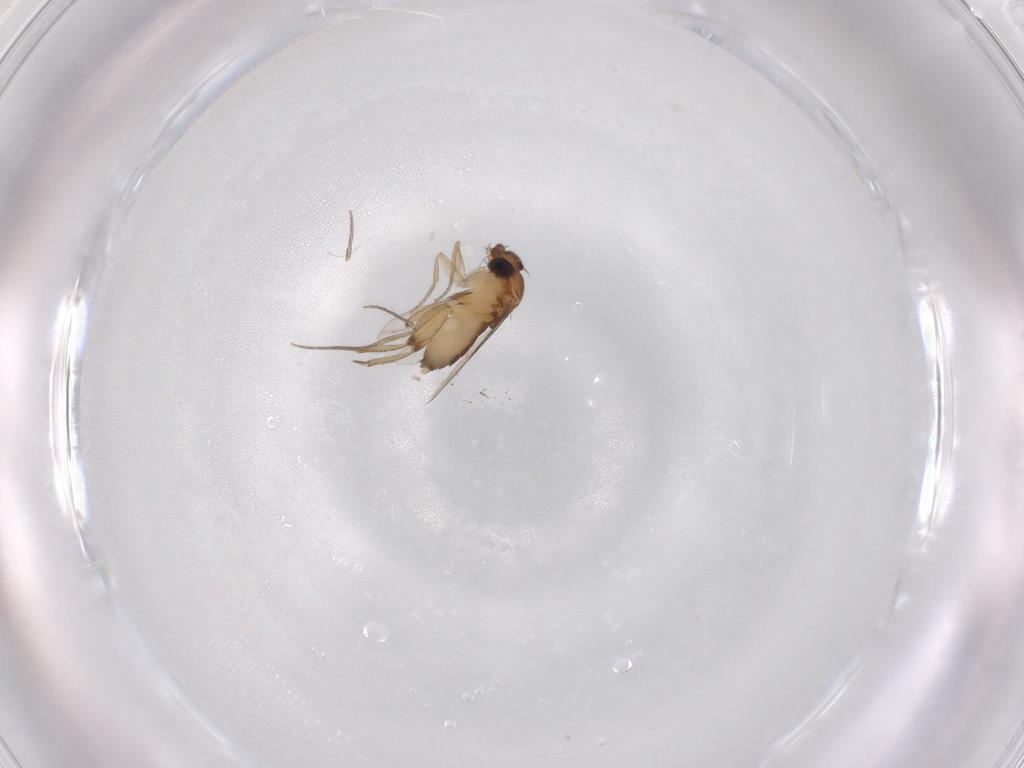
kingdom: Animalia
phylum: Arthropoda
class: Insecta
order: Diptera
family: Phoridae
